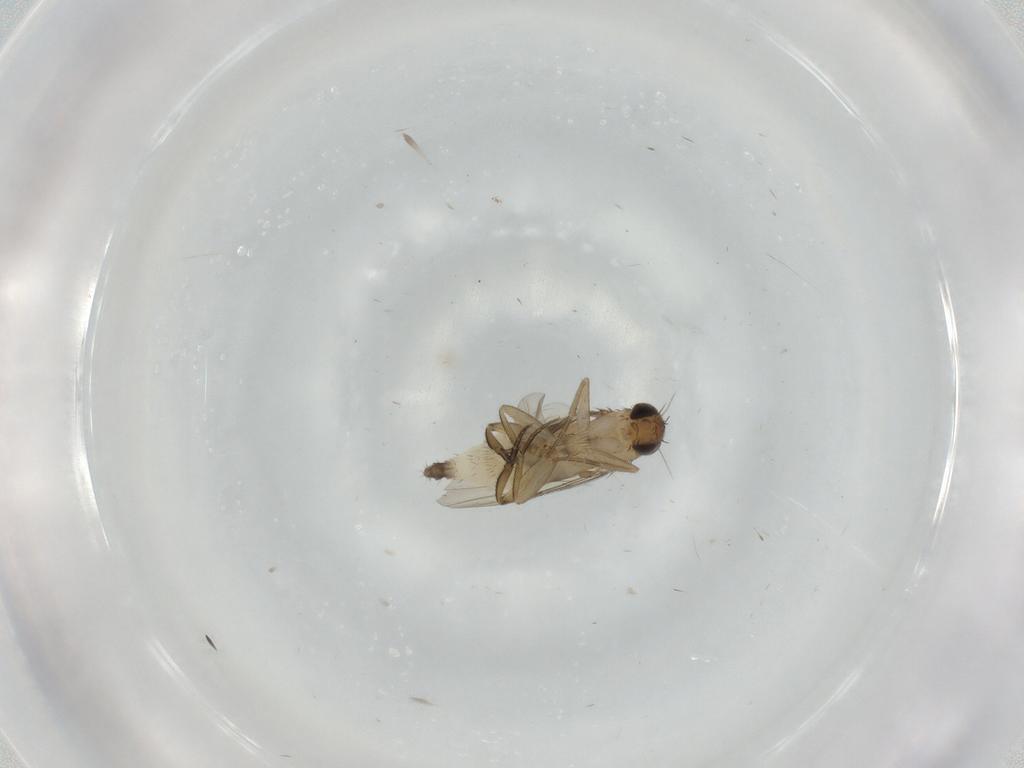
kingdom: Animalia
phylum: Arthropoda
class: Insecta
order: Diptera
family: Phoridae
